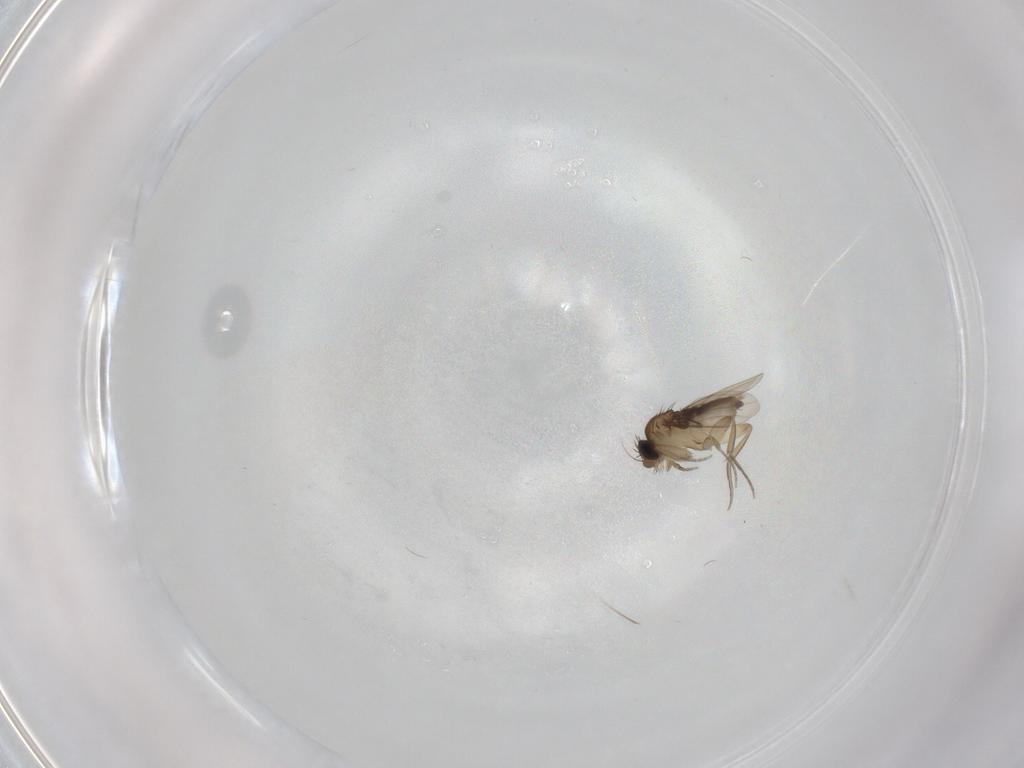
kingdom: Animalia
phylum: Arthropoda
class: Insecta
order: Diptera
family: Phoridae
